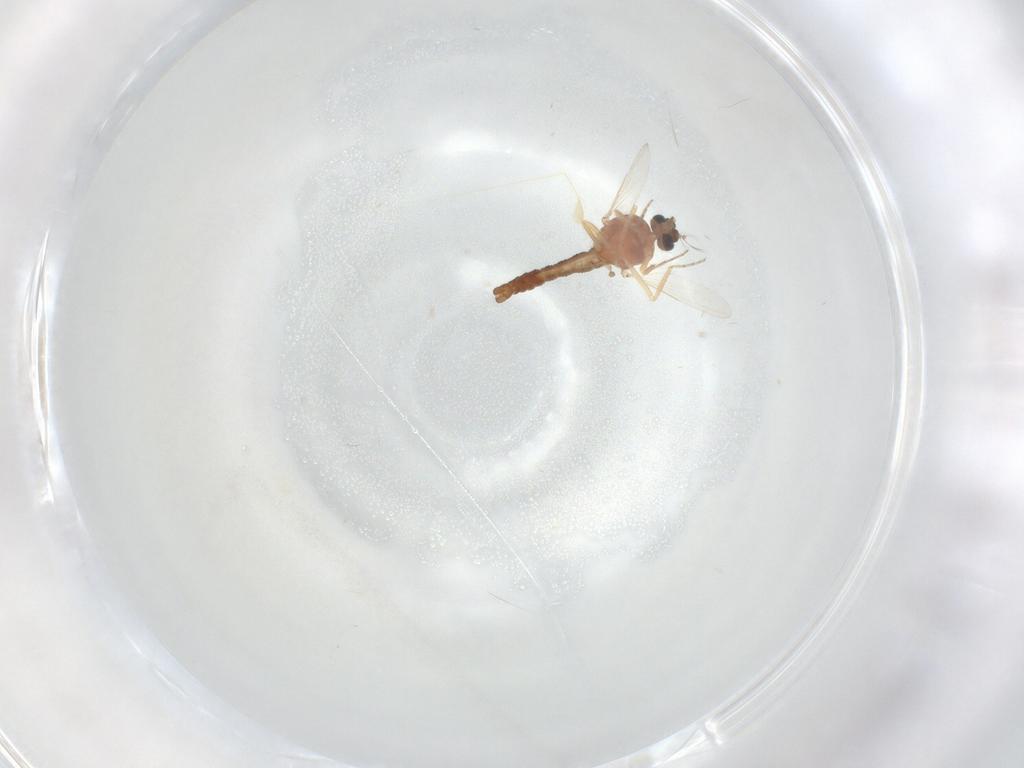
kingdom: Animalia
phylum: Arthropoda
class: Insecta
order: Diptera
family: Ceratopogonidae
